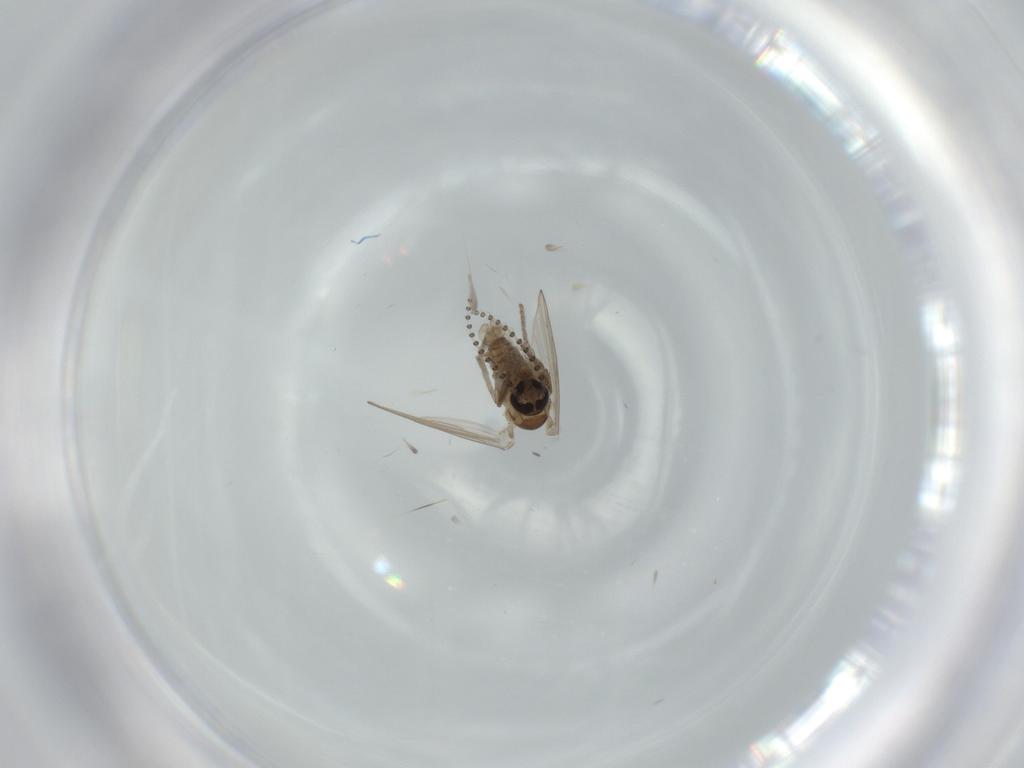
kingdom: Animalia
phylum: Arthropoda
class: Insecta
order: Diptera
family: Psychodidae
